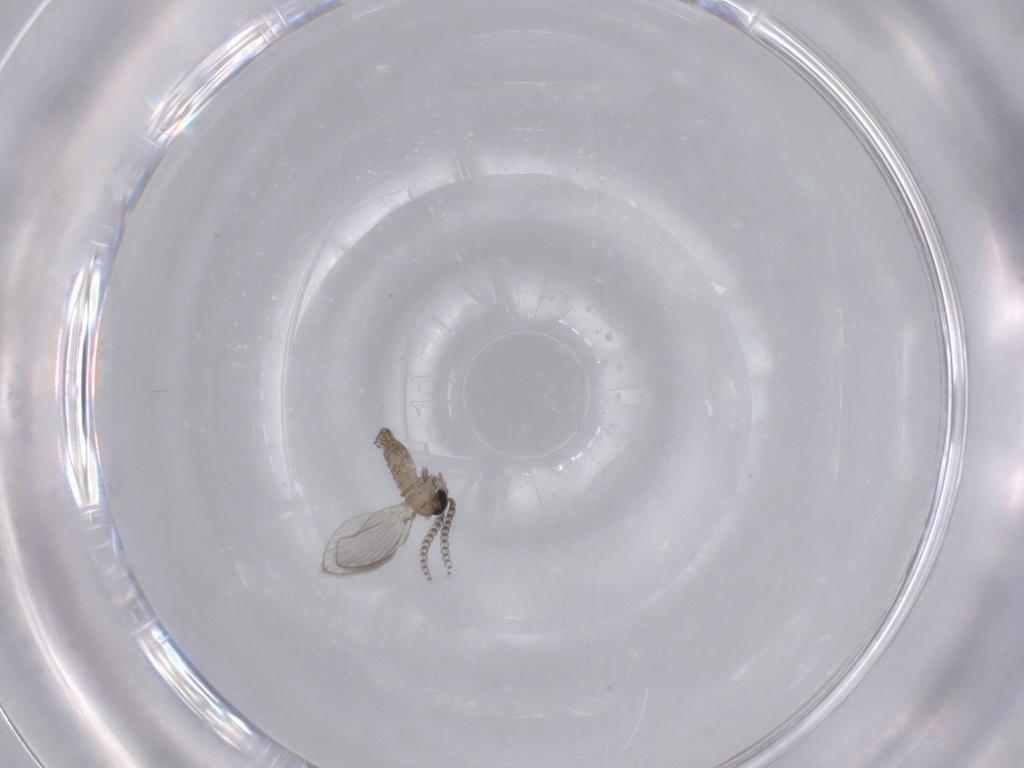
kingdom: Animalia
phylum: Arthropoda
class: Insecta
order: Diptera
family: Psychodidae
